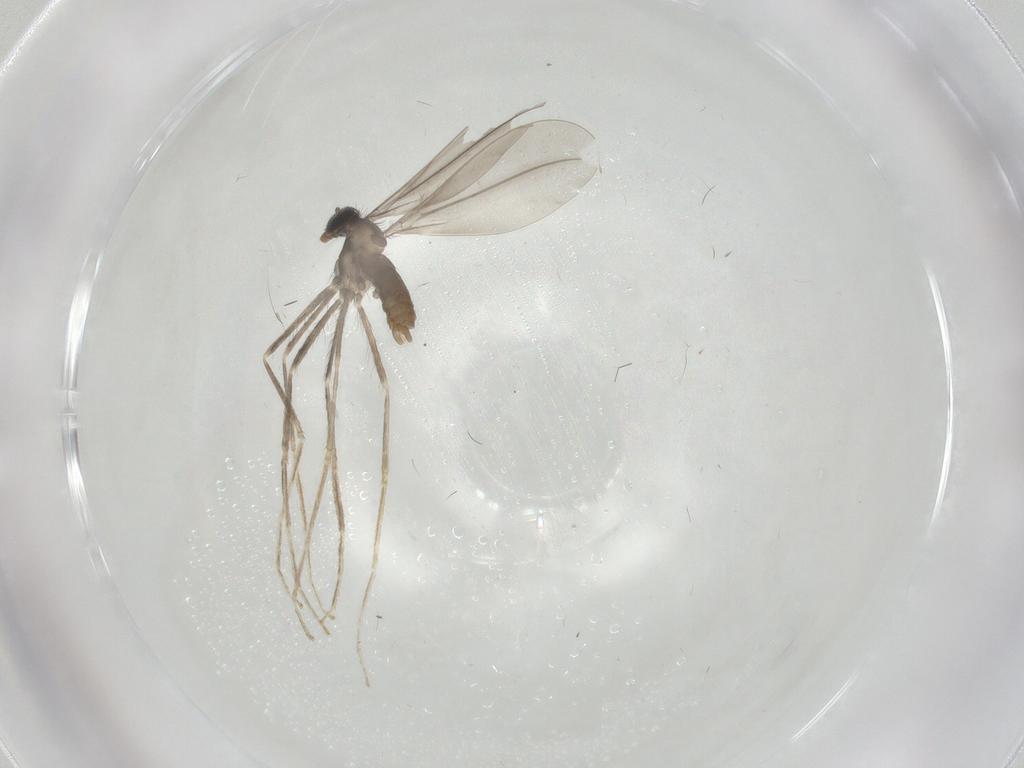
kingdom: Animalia
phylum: Arthropoda
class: Insecta
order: Diptera
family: Cecidomyiidae
